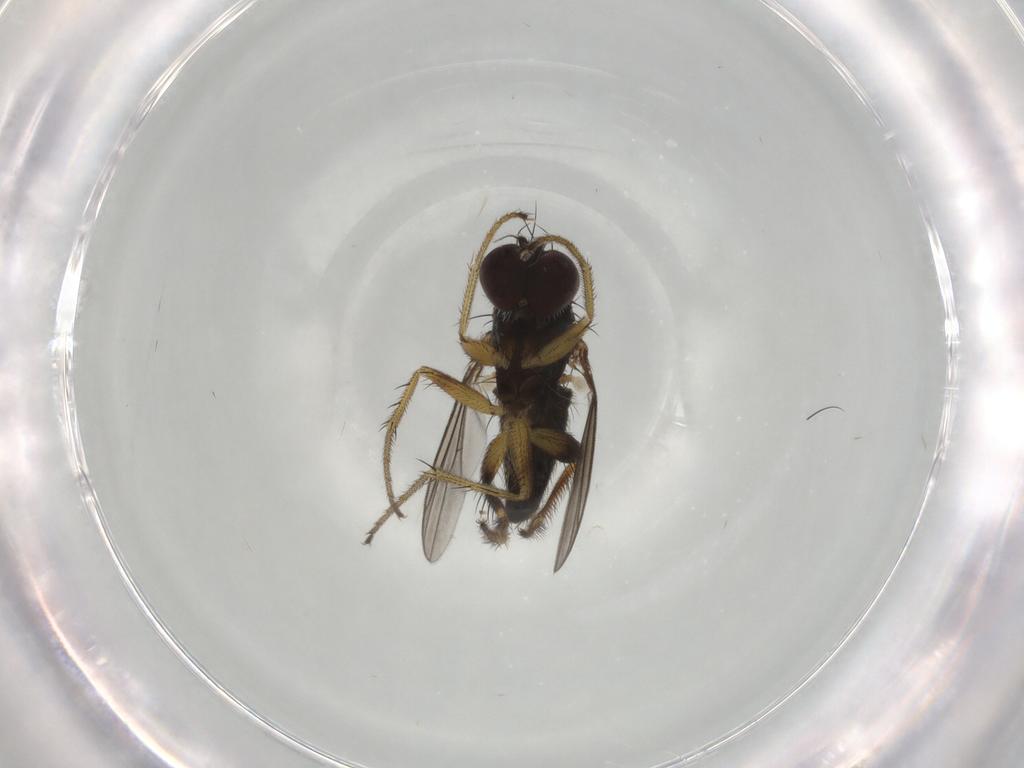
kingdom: Animalia
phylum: Arthropoda
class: Insecta
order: Diptera
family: Dolichopodidae
